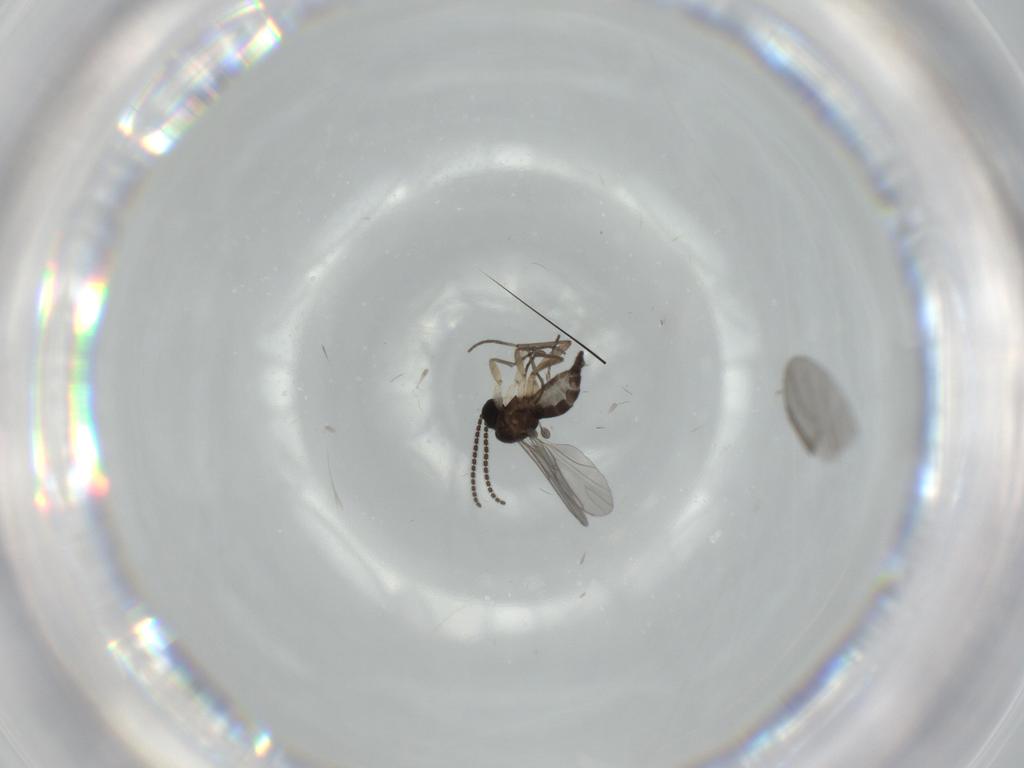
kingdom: Animalia
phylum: Arthropoda
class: Insecta
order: Diptera
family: Sciaridae
